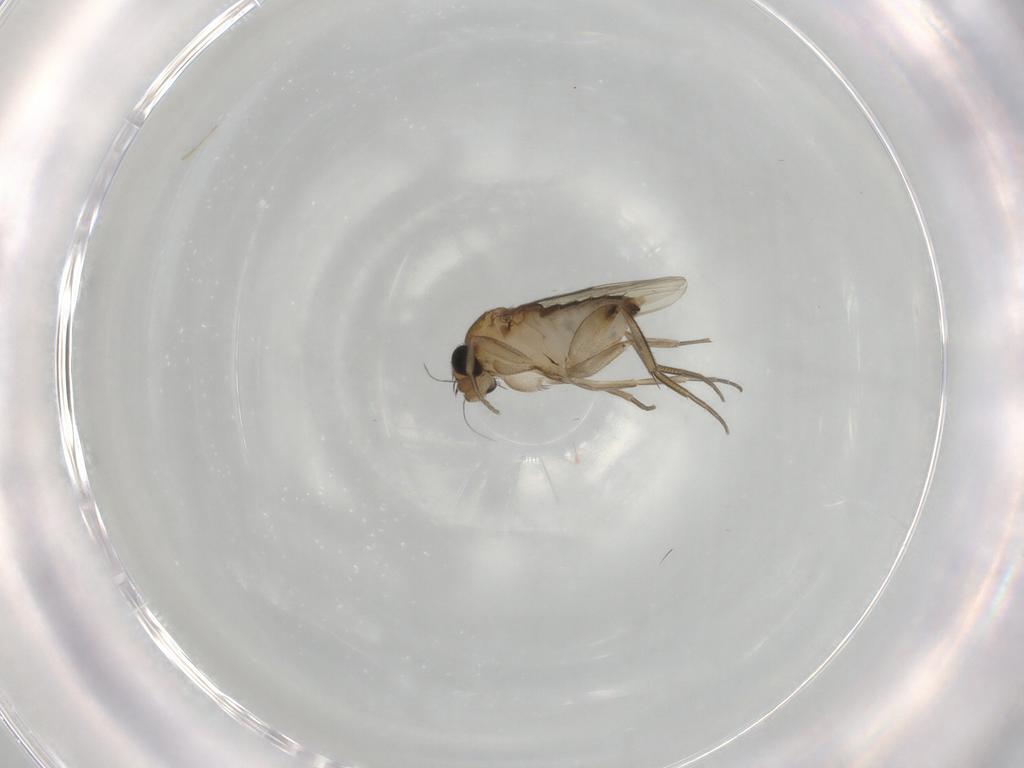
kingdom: Animalia
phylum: Arthropoda
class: Insecta
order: Diptera
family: Phoridae
